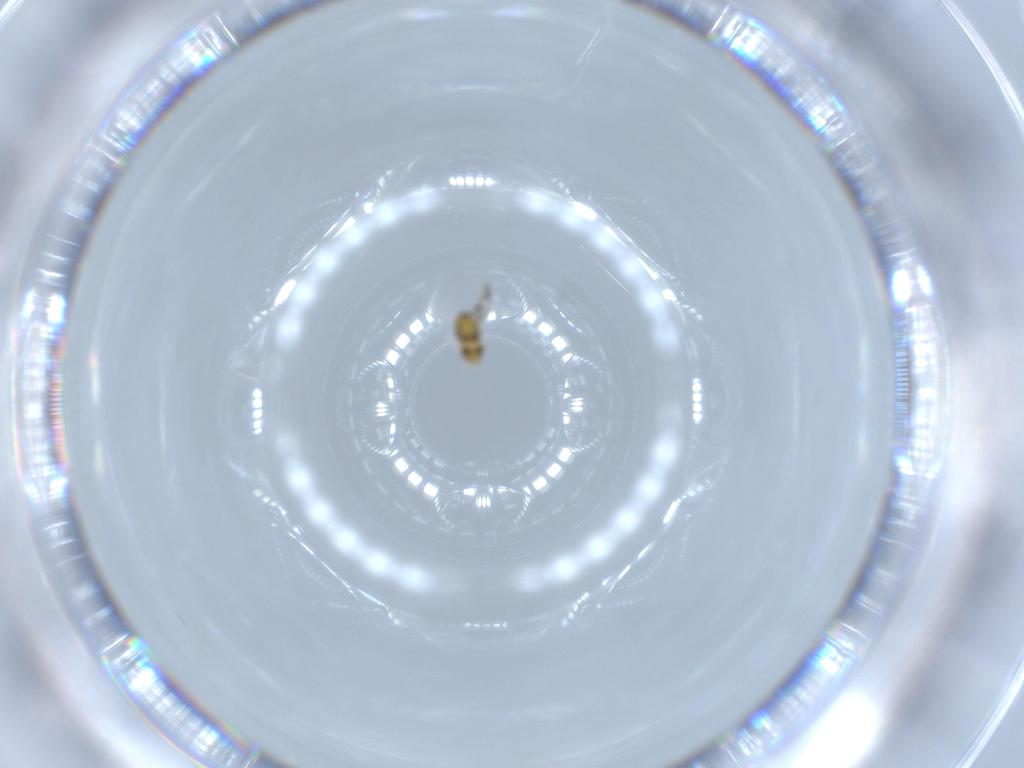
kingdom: Animalia
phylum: Arthropoda
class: Insecta
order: Hymenoptera
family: Aphelinidae
